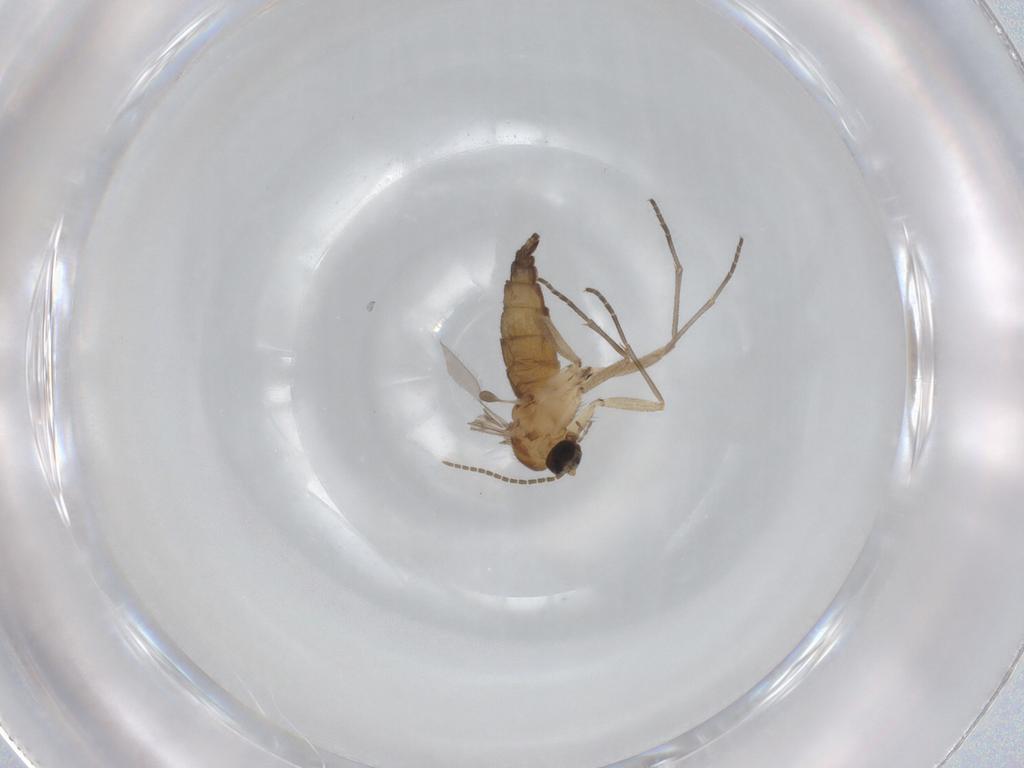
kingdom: Animalia
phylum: Arthropoda
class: Insecta
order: Diptera
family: Sciaridae
